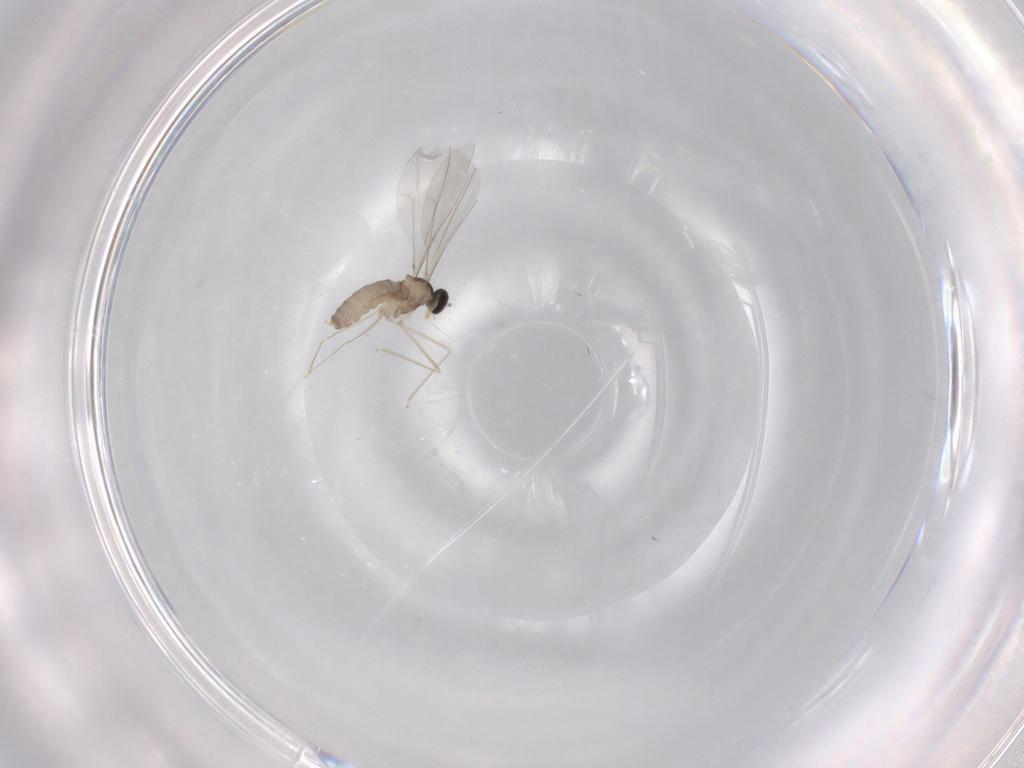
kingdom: Animalia
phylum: Arthropoda
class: Insecta
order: Diptera
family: Cecidomyiidae
